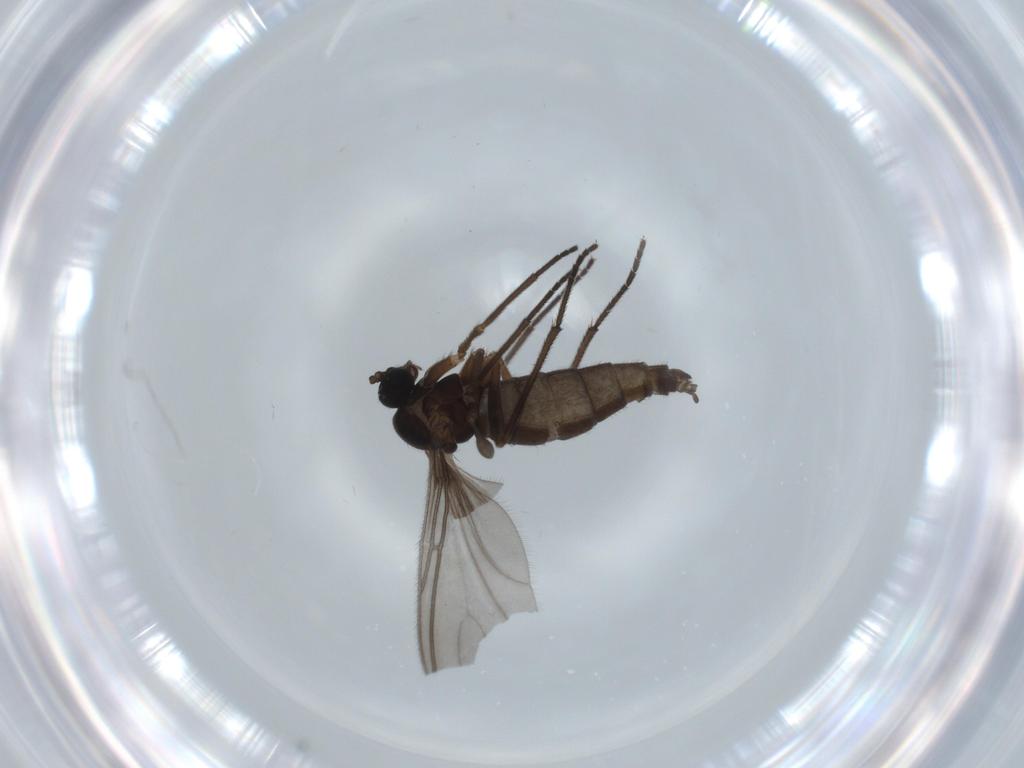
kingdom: Animalia
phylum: Arthropoda
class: Insecta
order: Diptera
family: Sciaridae
